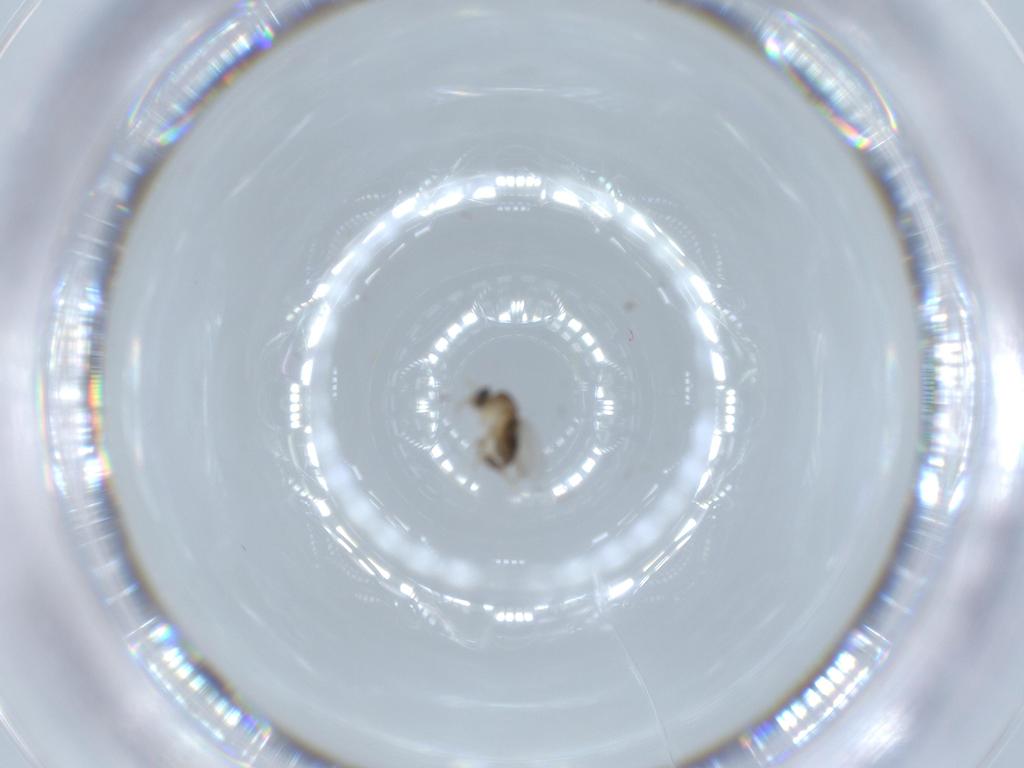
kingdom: Animalia
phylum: Arthropoda
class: Insecta
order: Diptera
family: Phoridae
